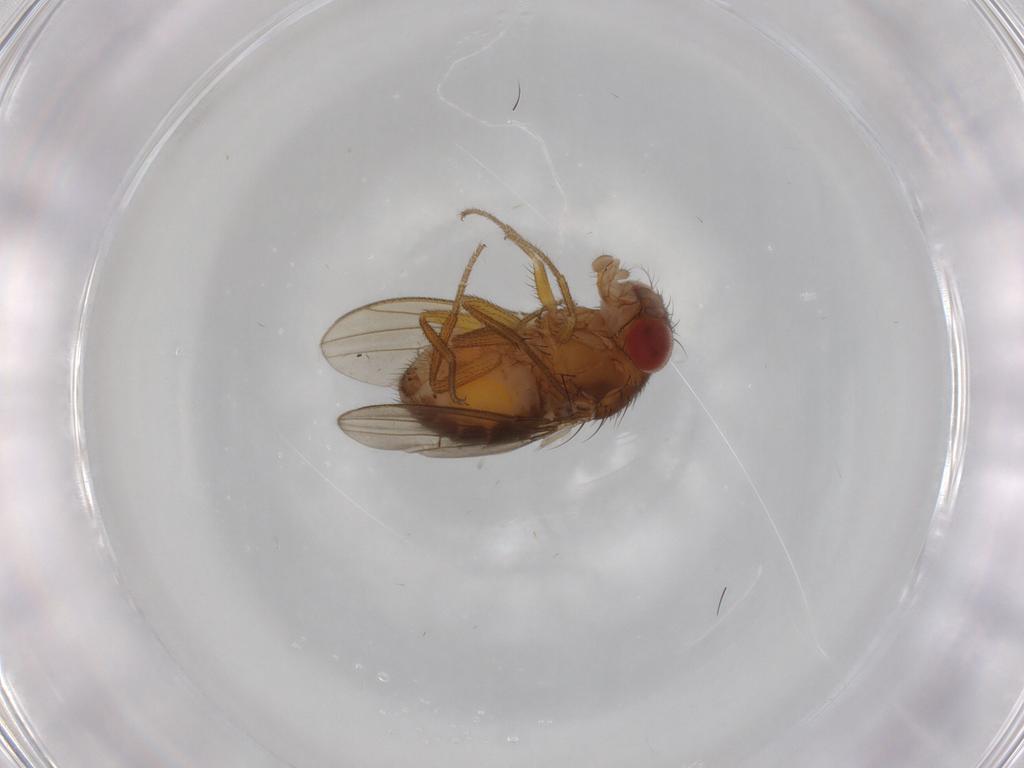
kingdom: Animalia
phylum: Arthropoda
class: Insecta
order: Diptera
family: Drosophilidae
